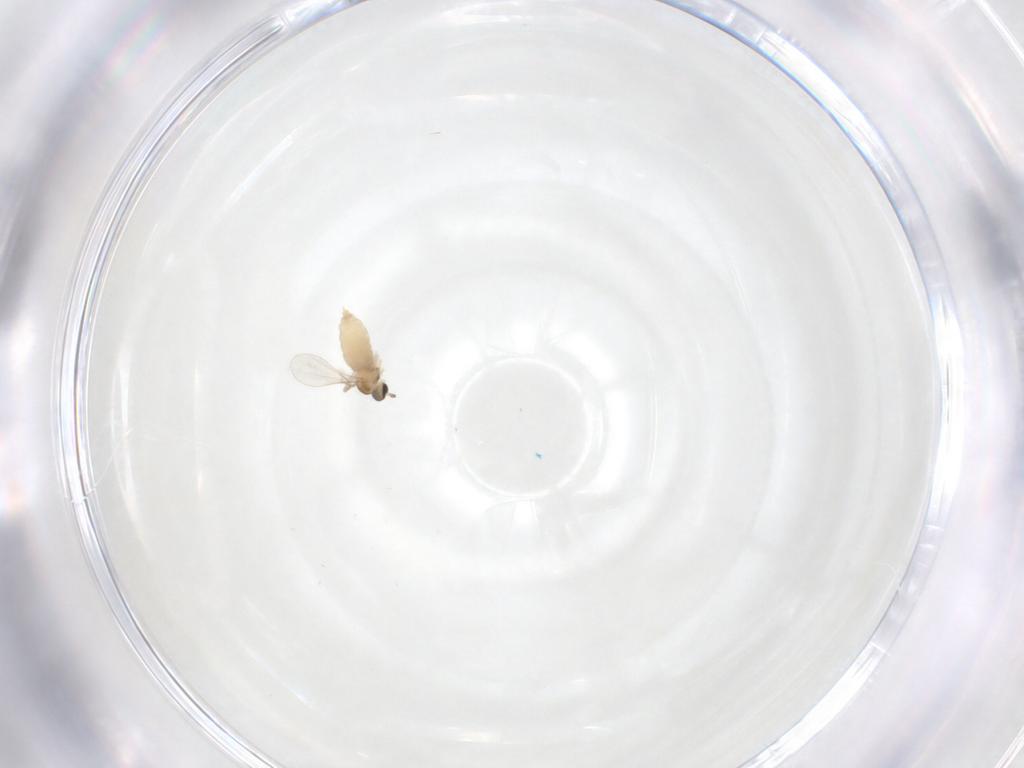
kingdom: Animalia
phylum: Arthropoda
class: Insecta
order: Diptera
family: Cecidomyiidae
